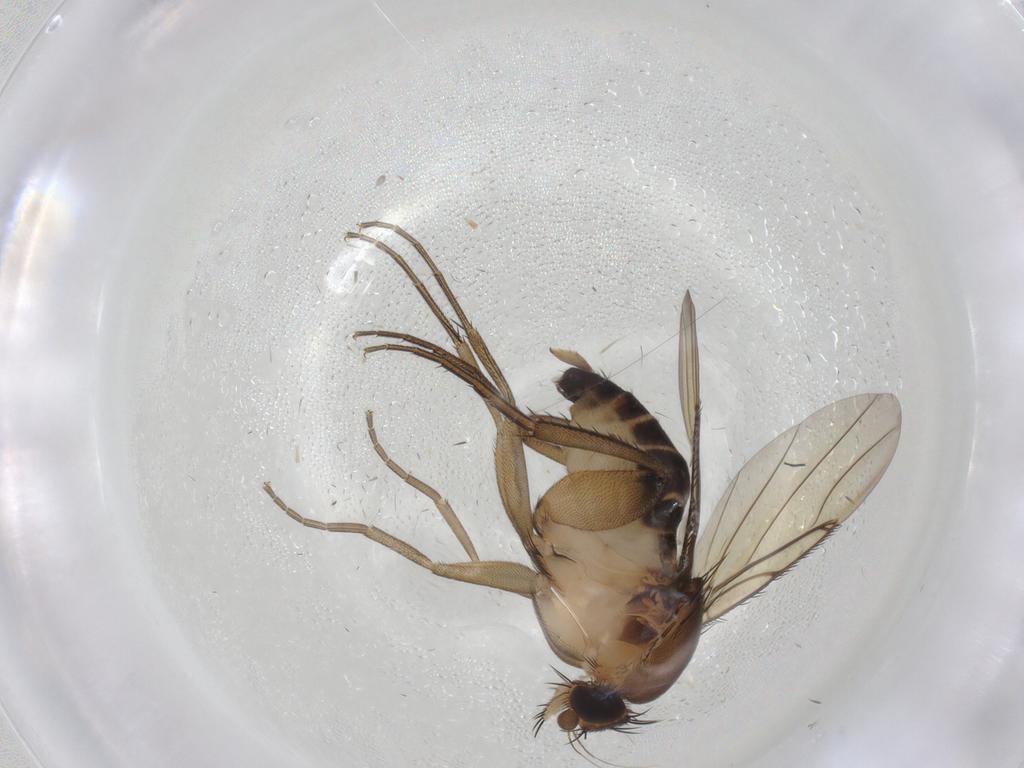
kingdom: Animalia
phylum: Arthropoda
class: Insecta
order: Diptera
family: Phoridae
